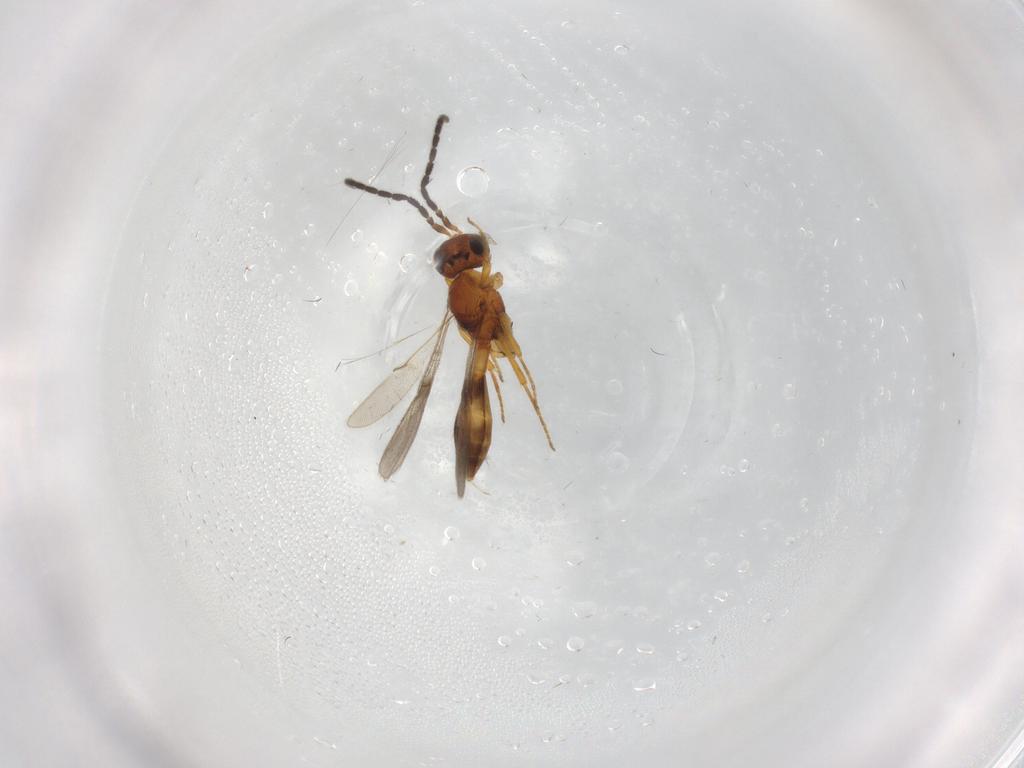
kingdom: Animalia
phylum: Arthropoda
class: Insecta
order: Hymenoptera
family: Scelionidae
